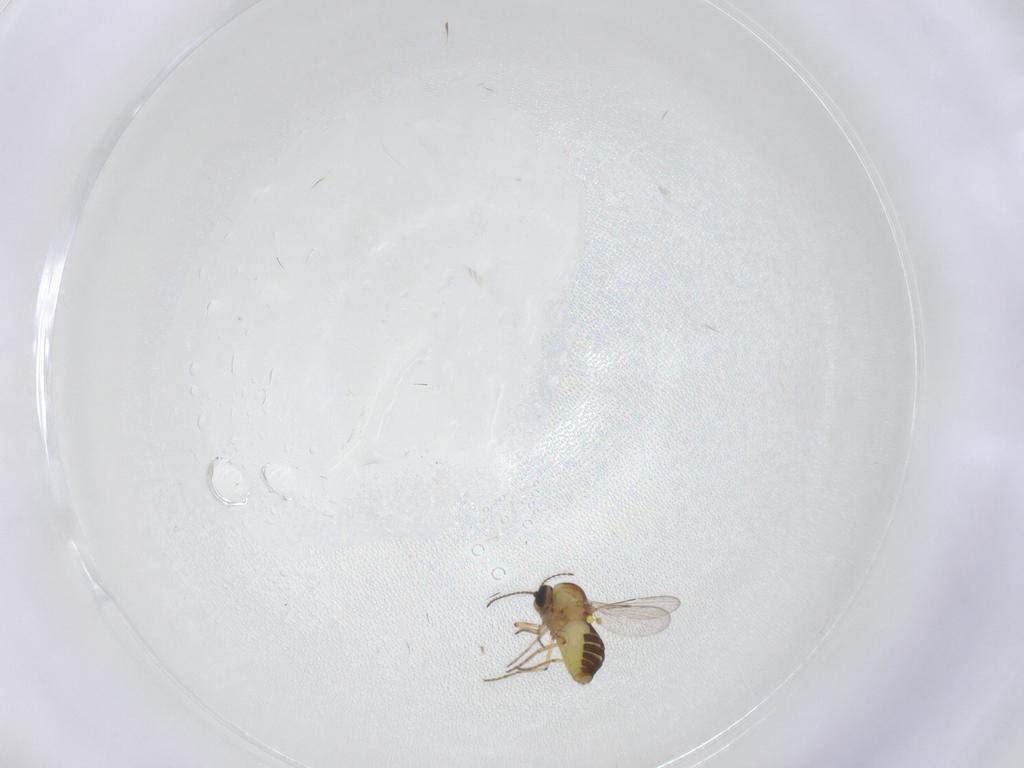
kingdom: Animalia
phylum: Arthropoda
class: Insecta
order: Diptera
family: Ceratopogonidae
